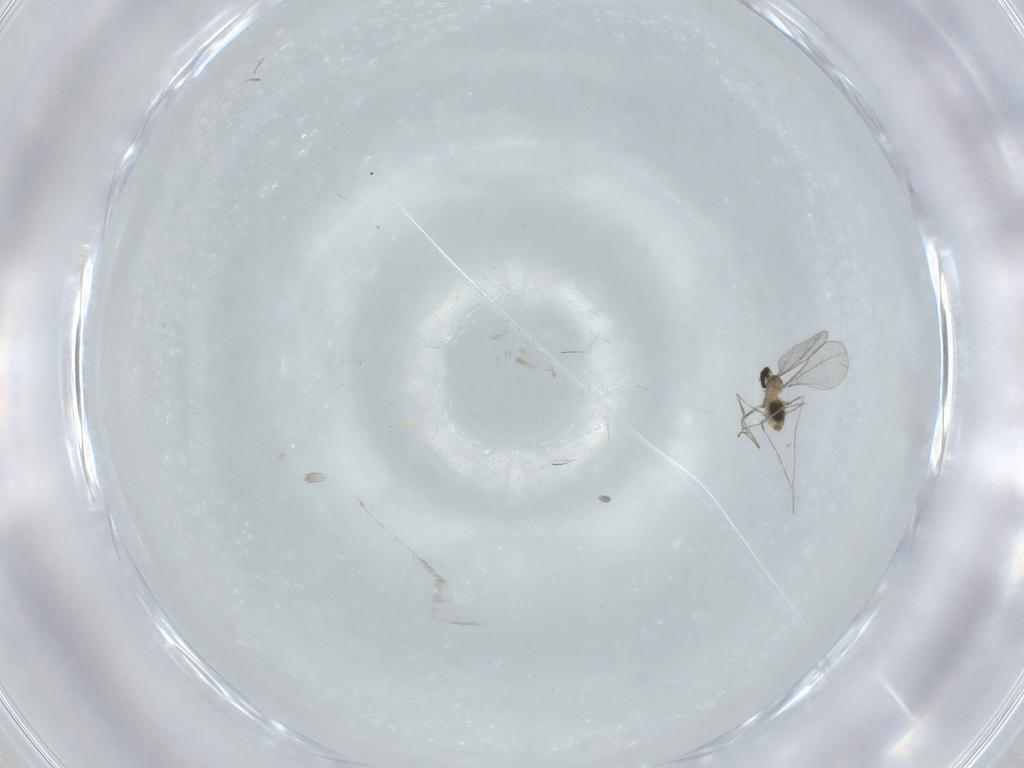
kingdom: Animalia
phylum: Arthropoda
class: Insecta
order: Diptera
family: Cecidomyiidae
